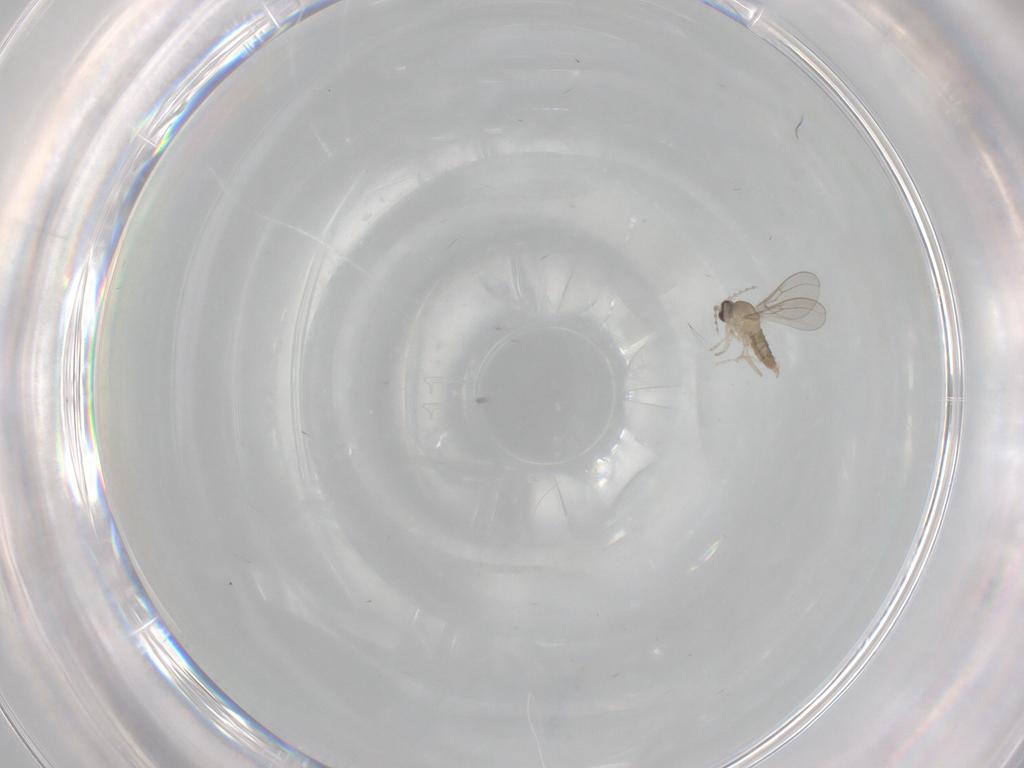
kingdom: Animalia
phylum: Arthropoda
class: Insecta
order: Diptera
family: Cecidomyiidae
